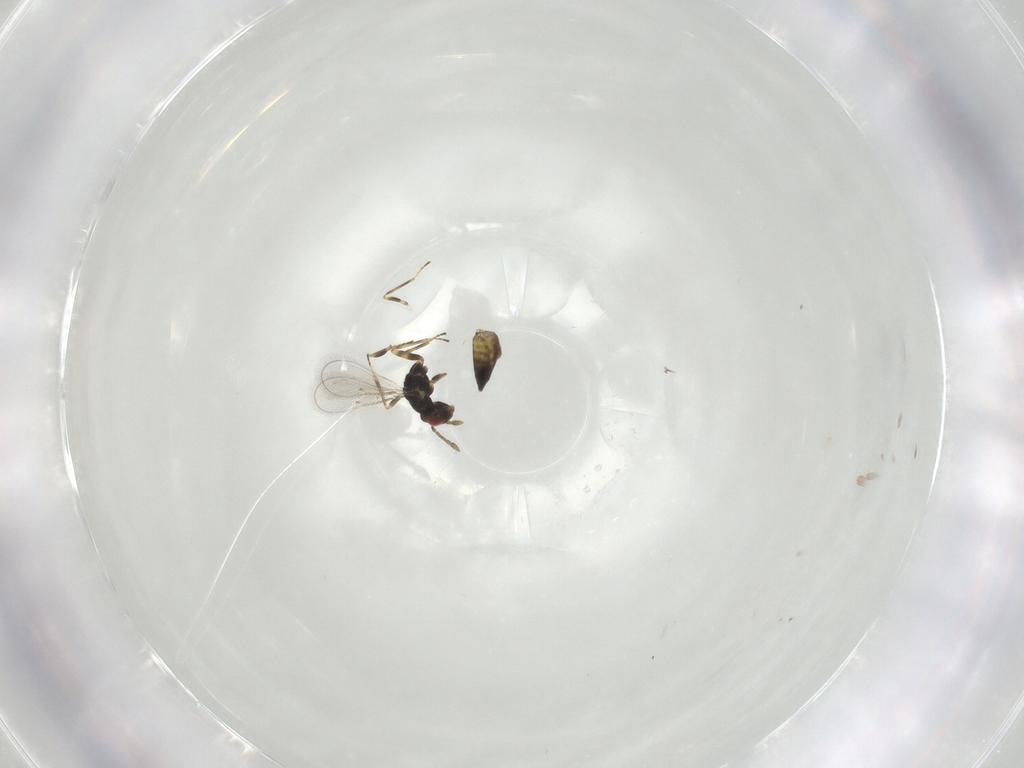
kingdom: Animalia
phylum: Arthropoda
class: Insecta
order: Hymenoptera
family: Eulophidae
